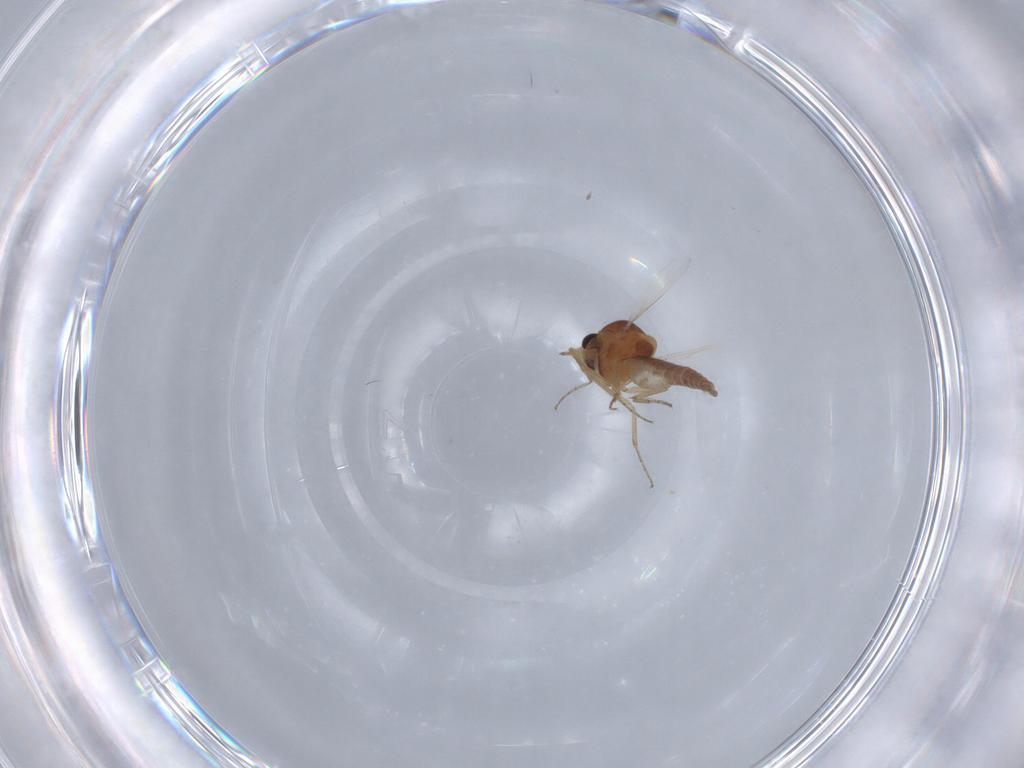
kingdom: Animalia
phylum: Arthropoda
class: Insecta
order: Diptera
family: Ceratopogonidae
